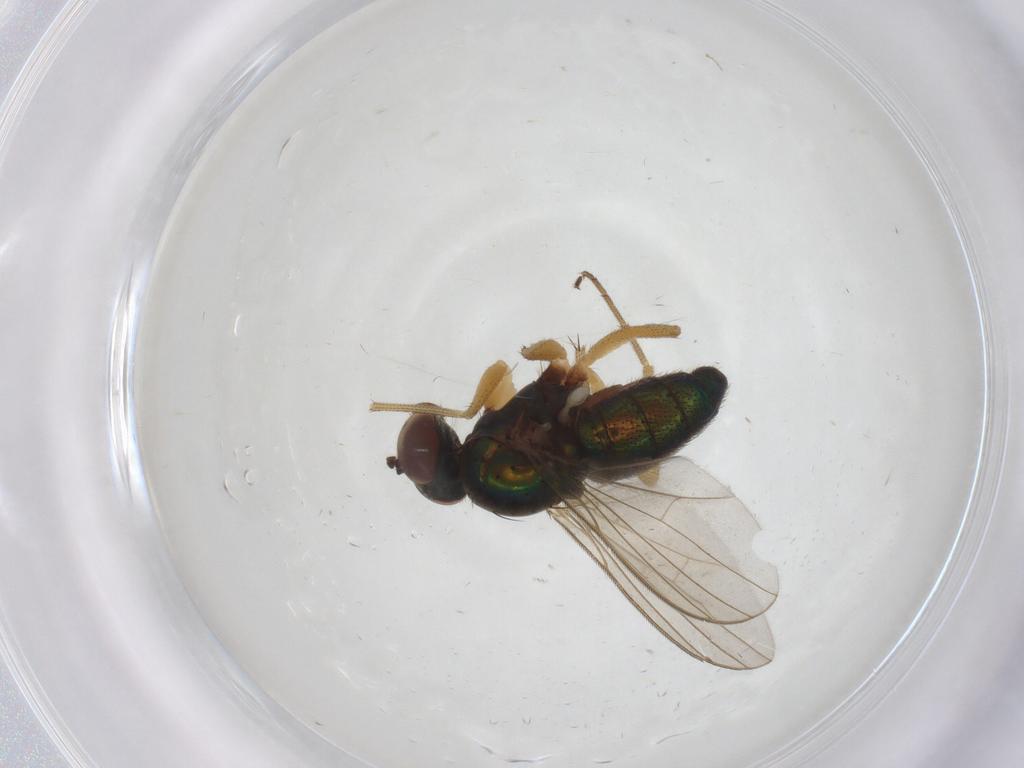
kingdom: Animalia
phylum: Arthropoda
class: Insecta
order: Diptera
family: Dolichopodidae
